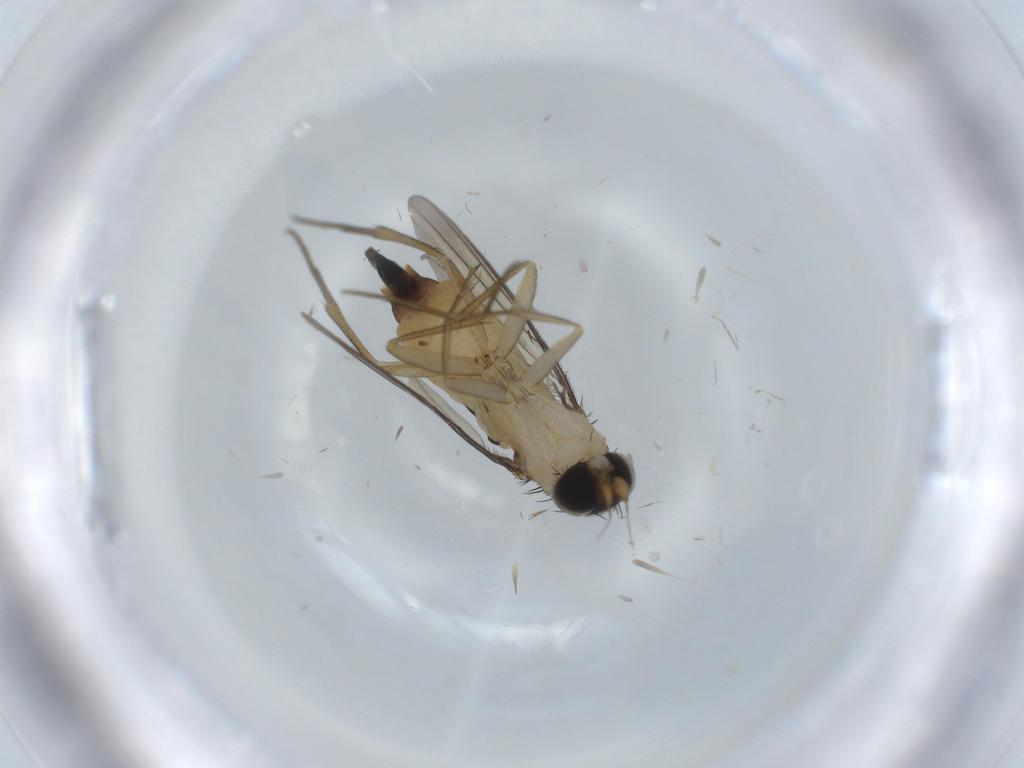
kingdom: Animalia
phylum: Arthropoda
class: Insecta
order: Diptera
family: Phoridae
